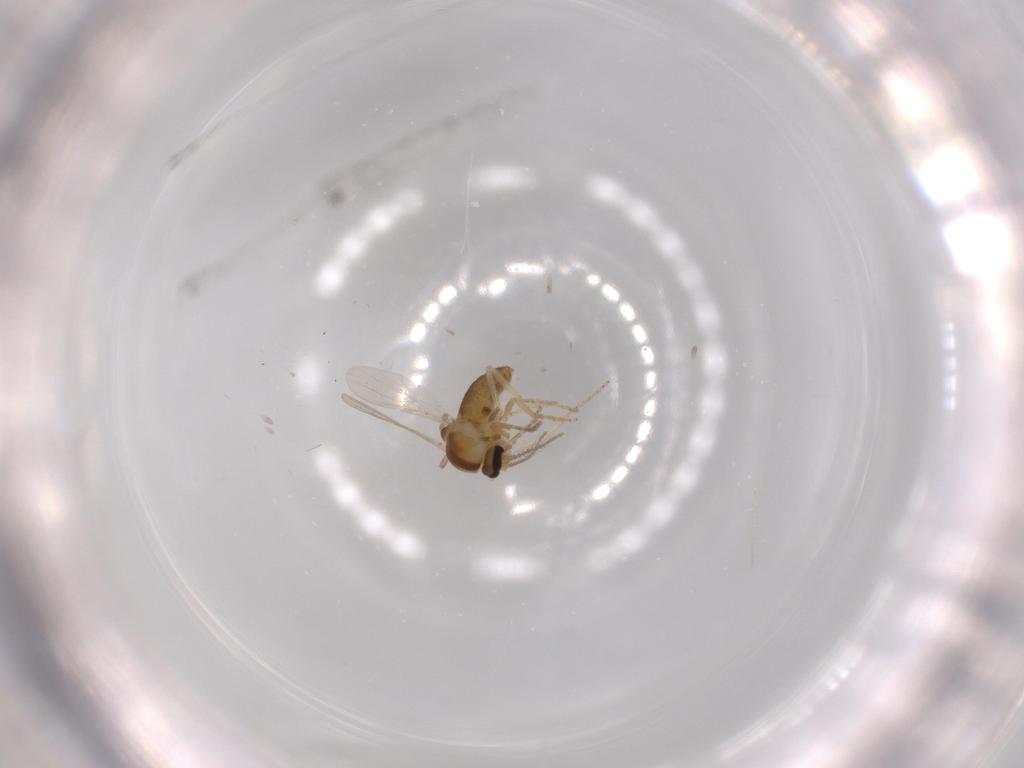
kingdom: Animalia
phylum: Arthropoda
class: Insecta
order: Diptera
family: Ceratopogonidae
